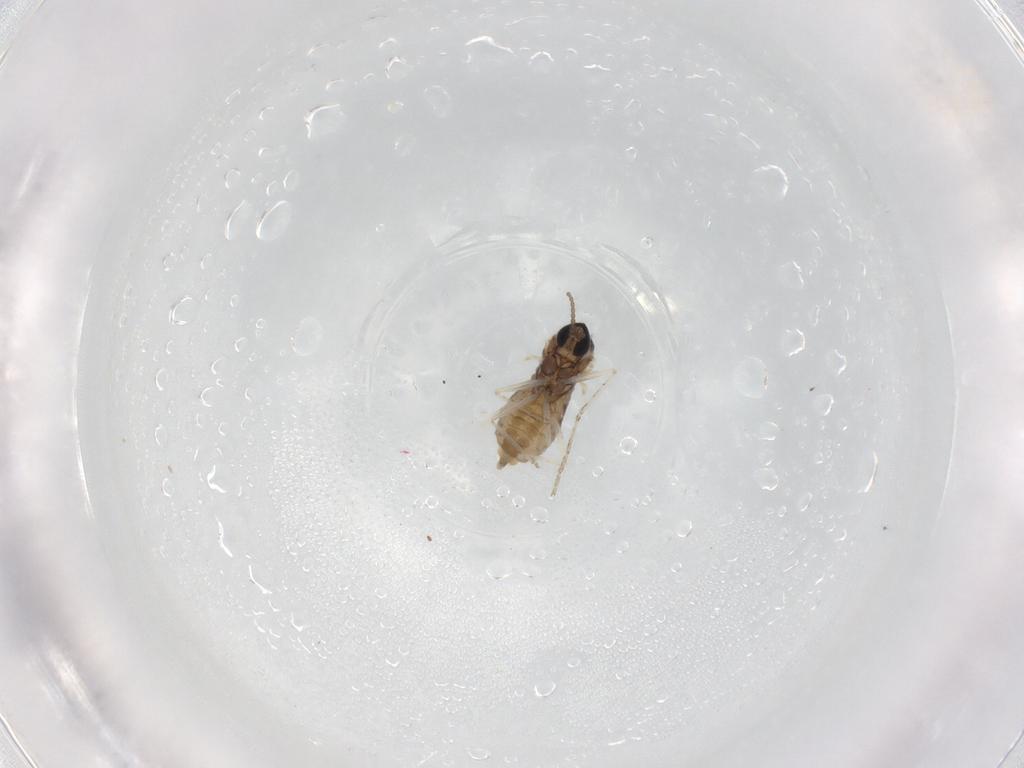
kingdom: Animalia
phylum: Arthropoda
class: Insecta
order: Diptera
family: Cecidomyiidae
